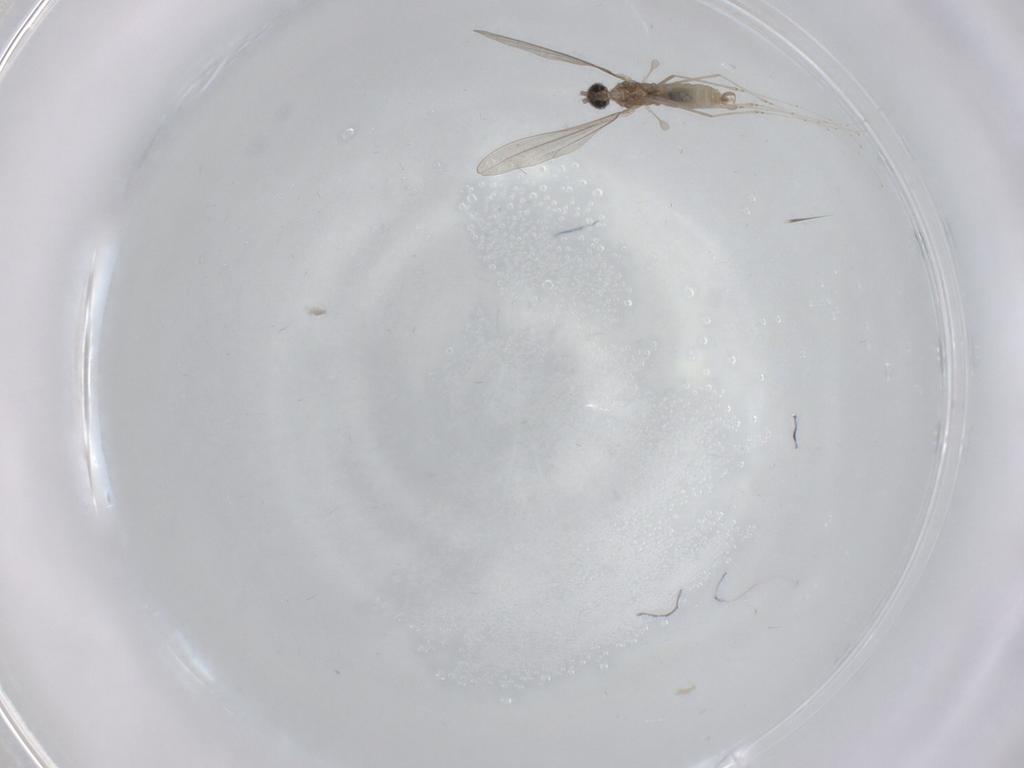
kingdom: Animalia
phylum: Arthropoda
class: Insecta
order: Diptera
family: Cecidomyiidae
